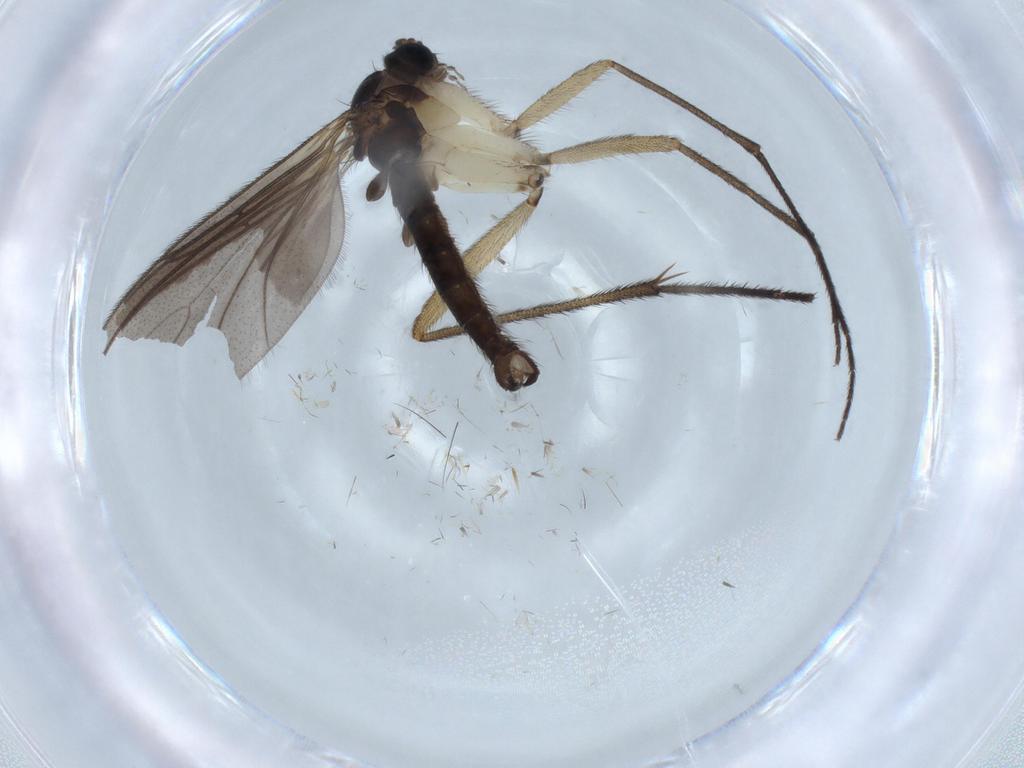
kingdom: Animalia
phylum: Arthropoda
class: Insecta
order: Diptera
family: Sciaridae
